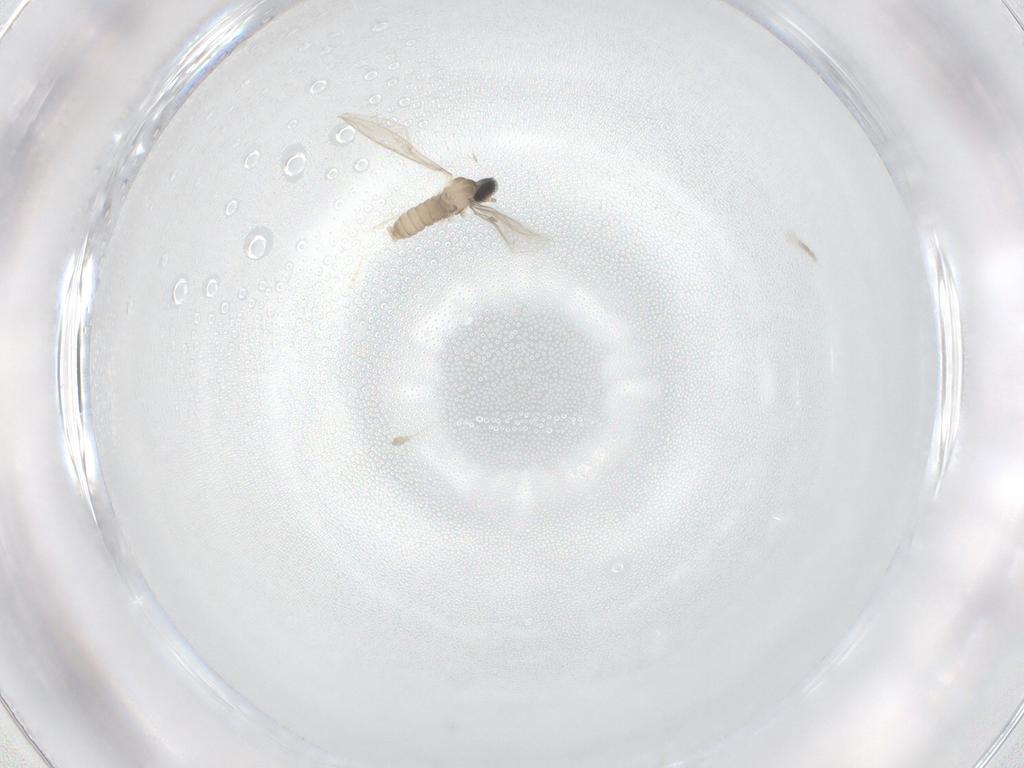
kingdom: Animalia
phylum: Arthropoda
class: Insecta
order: Diptera
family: Cecidomyiidae
